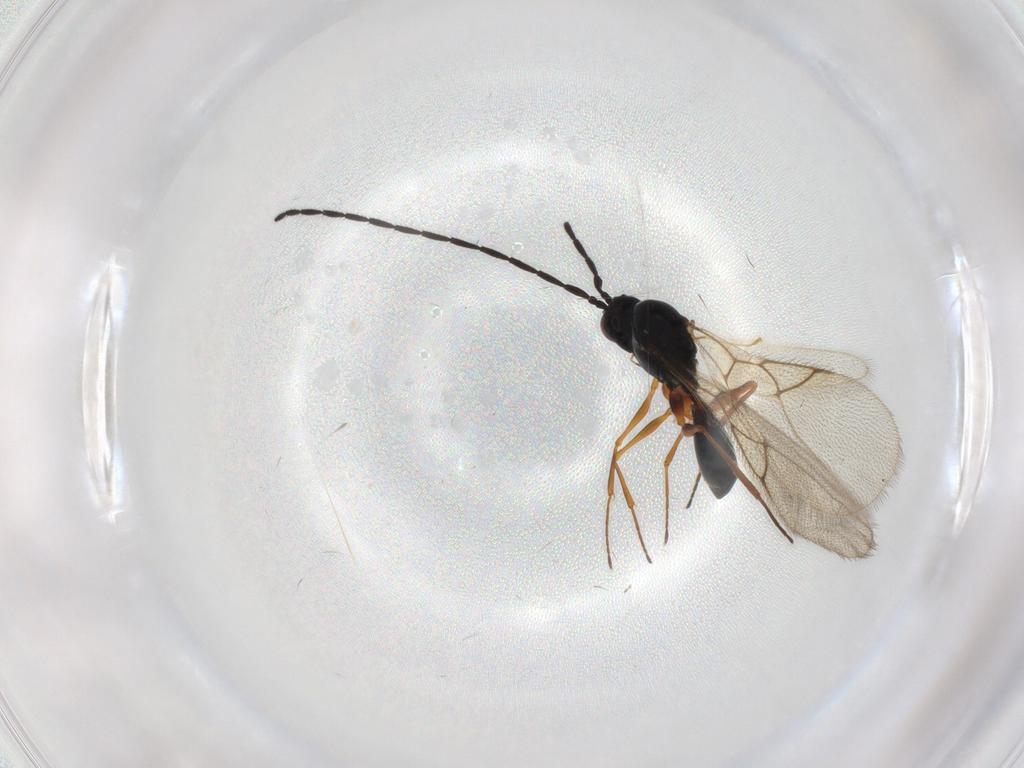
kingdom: Animalia
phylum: Arthropoda
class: Insecta
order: Hymenoptera
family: Figitidae
